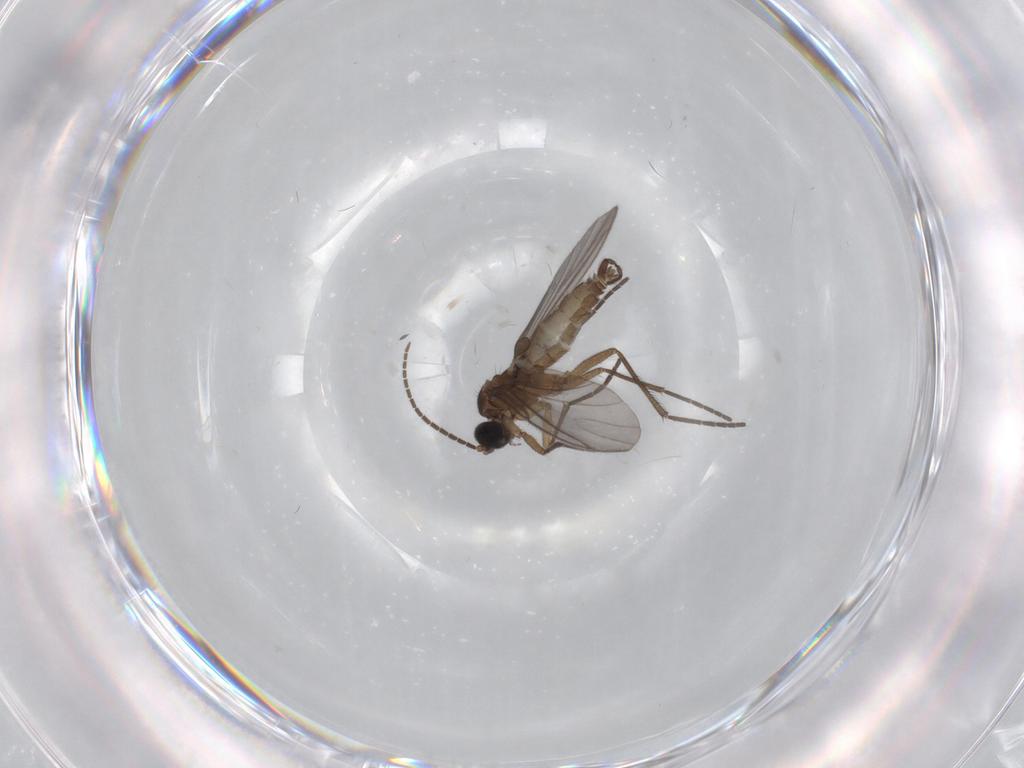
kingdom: Animalia
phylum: Arthropoda
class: Insecta
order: Diptera
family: Sciaridae
